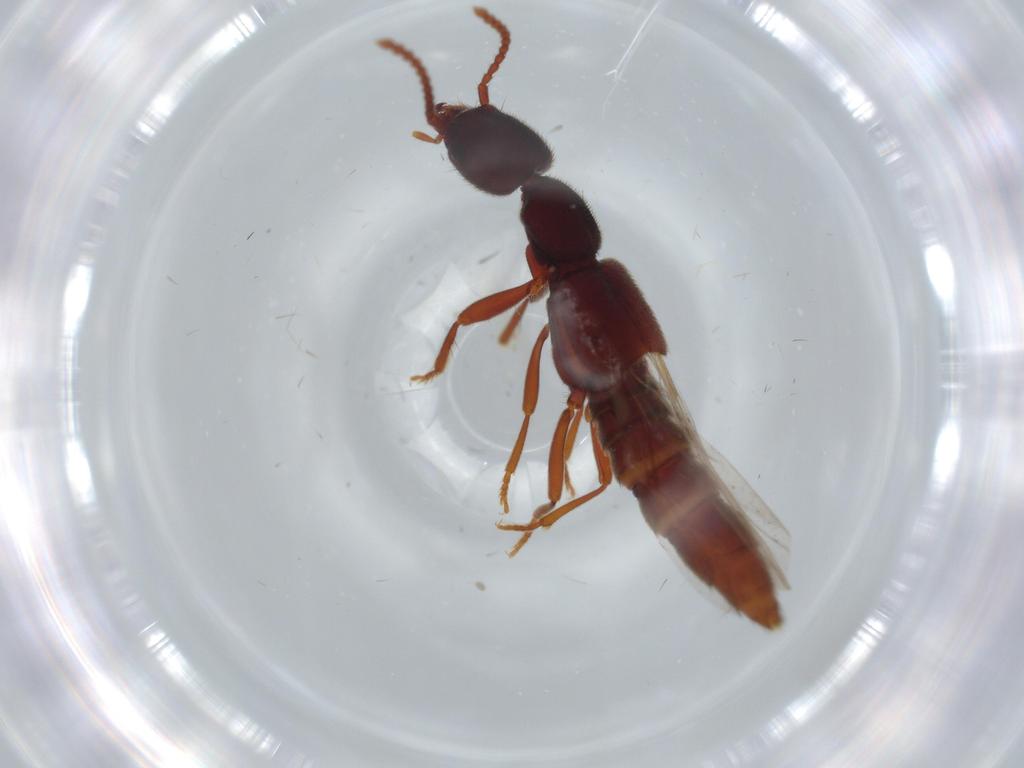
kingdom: Animalia
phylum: Arthropoda
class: Insecta
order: Coleoptera
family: Staphylinidae
